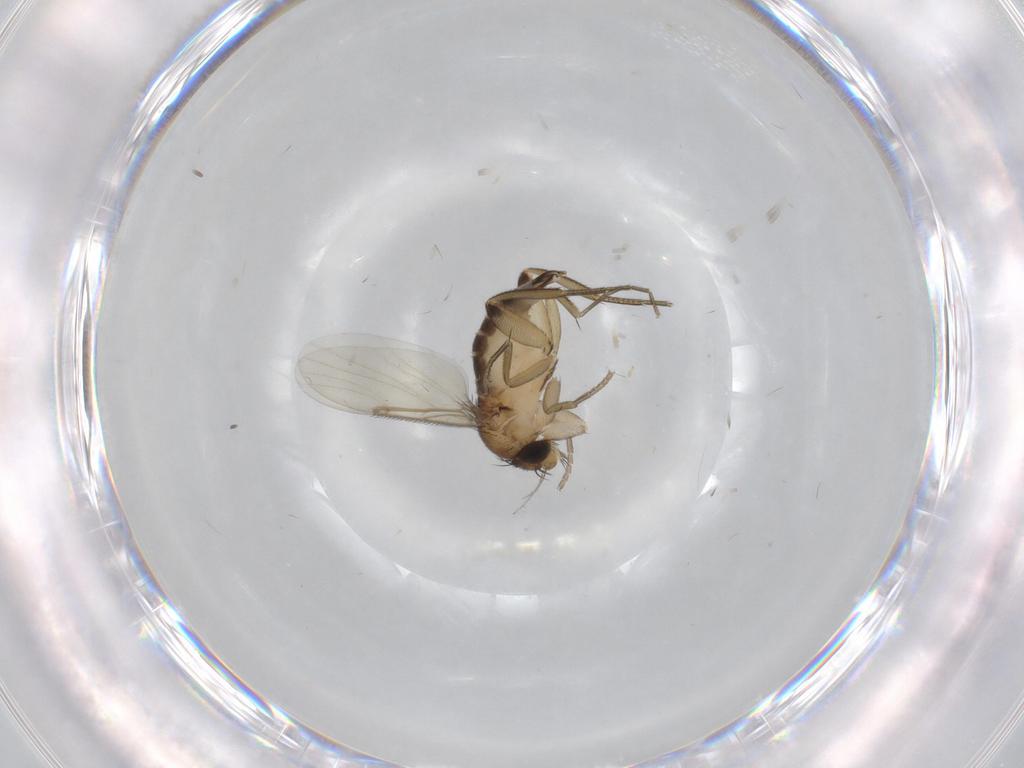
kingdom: Animalia
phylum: Arthropoda
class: Insecta
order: Diptera
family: Phoridae
